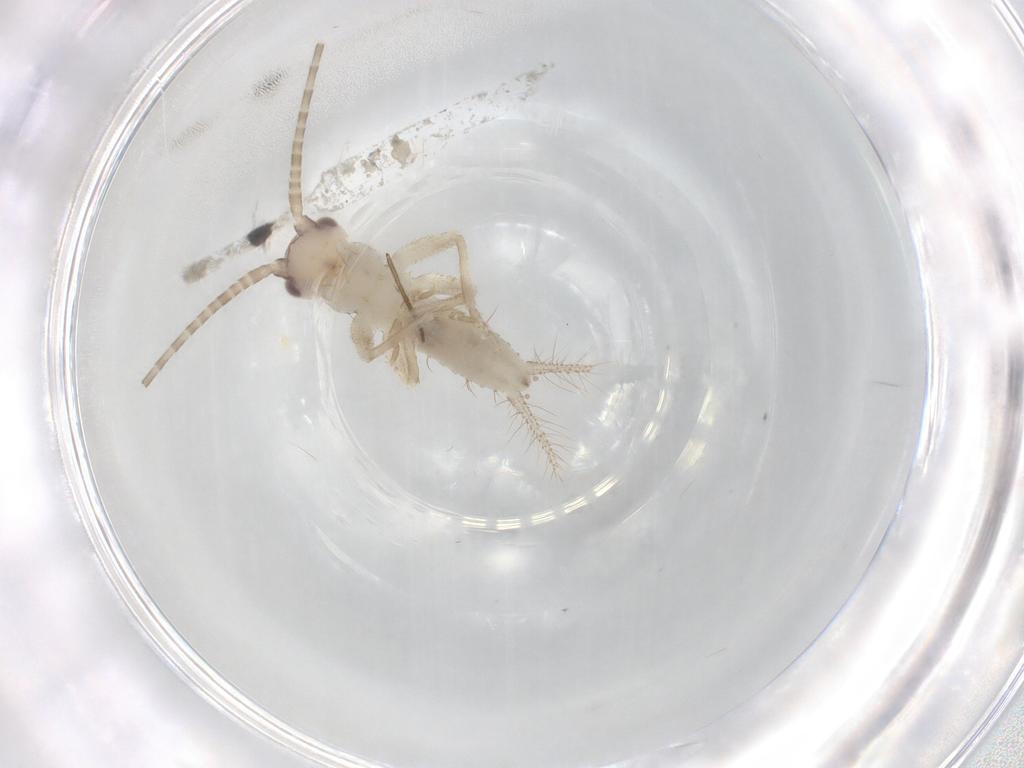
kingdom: Animalia
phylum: Arthropoda
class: Insecta
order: Orthoptera
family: Gryllidae
